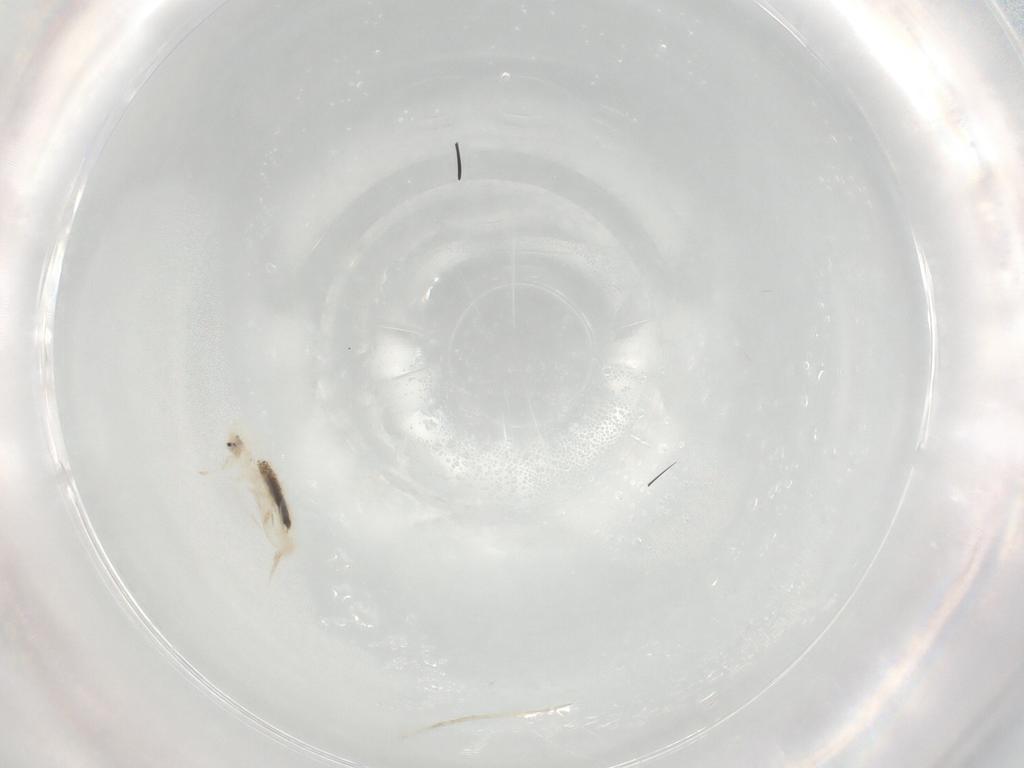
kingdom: Animalia
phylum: Arthropoda
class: Collembola
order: Entomobryomorpha
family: Entomobryidae
